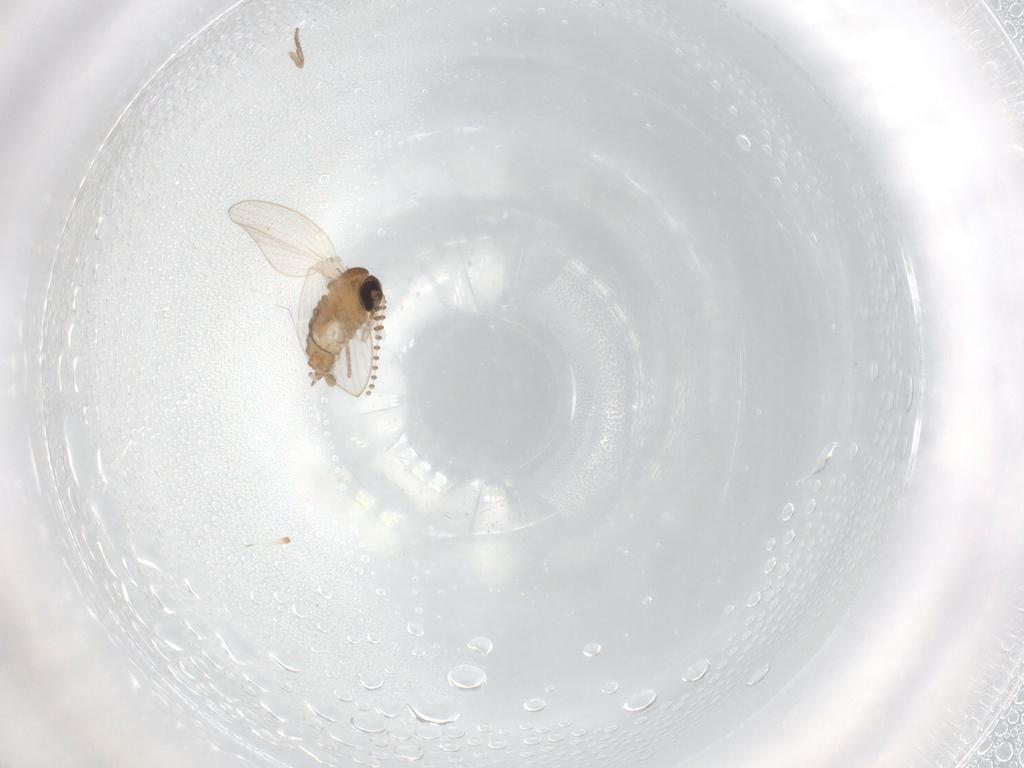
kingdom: Animalia
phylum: Arthropoda
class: Insecta
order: Diptera
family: Psychodidae
